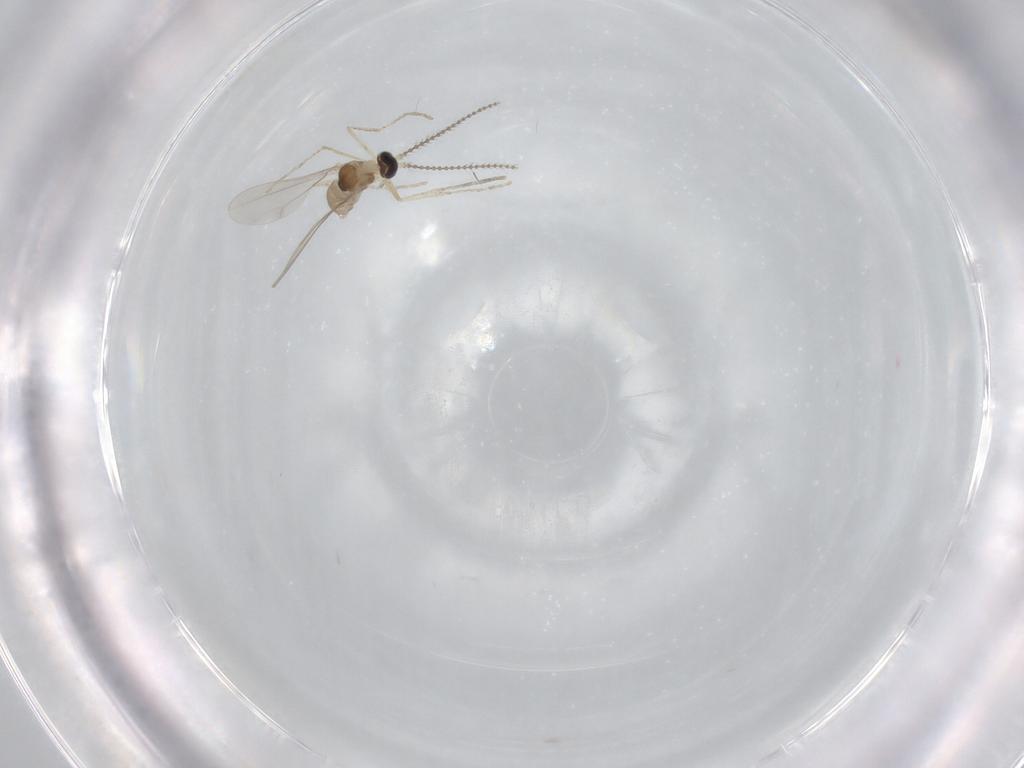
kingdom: Animalia
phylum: Arthropoda
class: Insecta
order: Diptera
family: Cecidomyiidae
